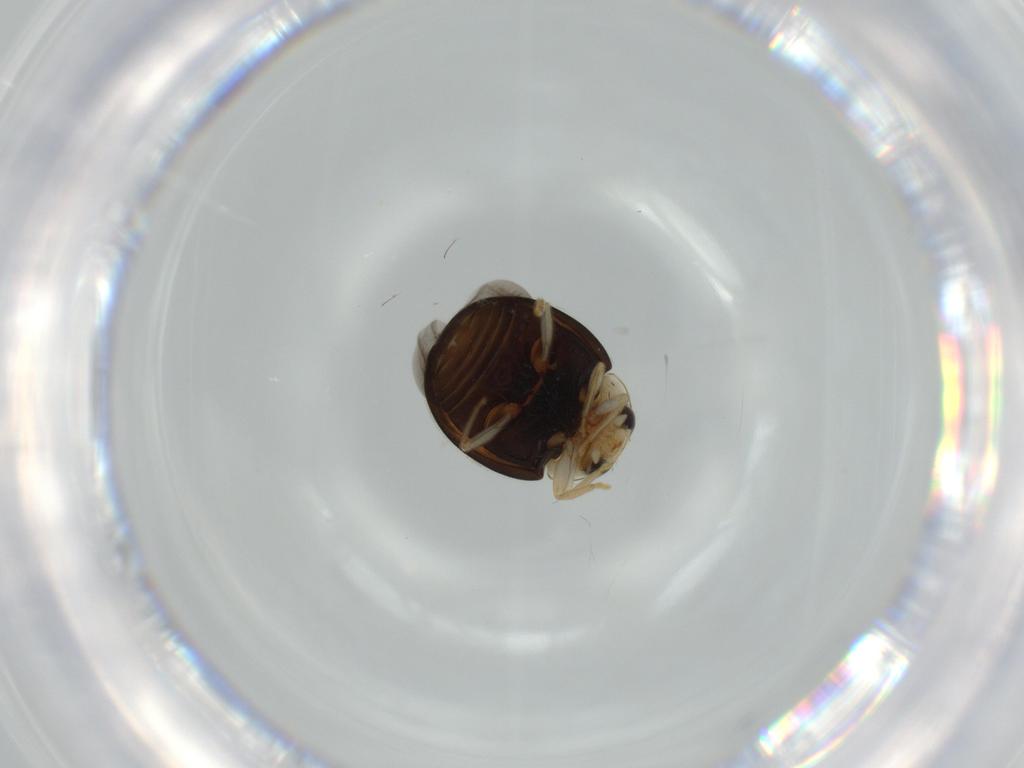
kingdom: Animalia
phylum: Arthropoda
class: Insecta
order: Coleoptera
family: Coccinellidae
